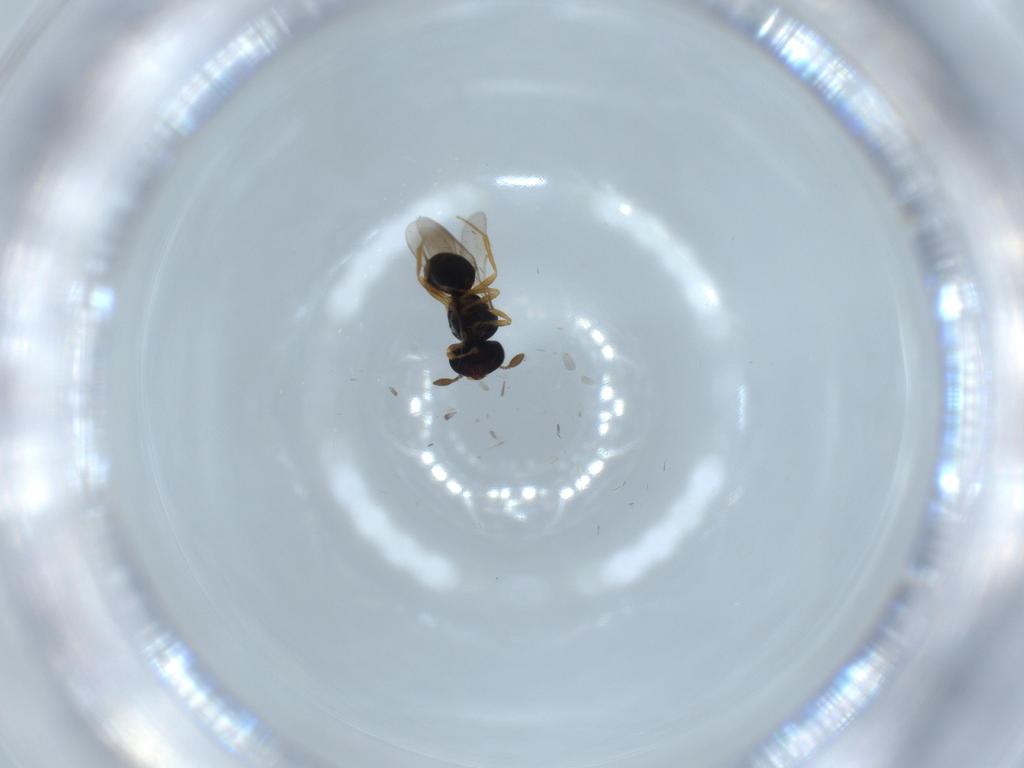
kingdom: Animalia
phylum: Arthropoda
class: Insecta
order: Hymenoptera
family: Scelionidae
